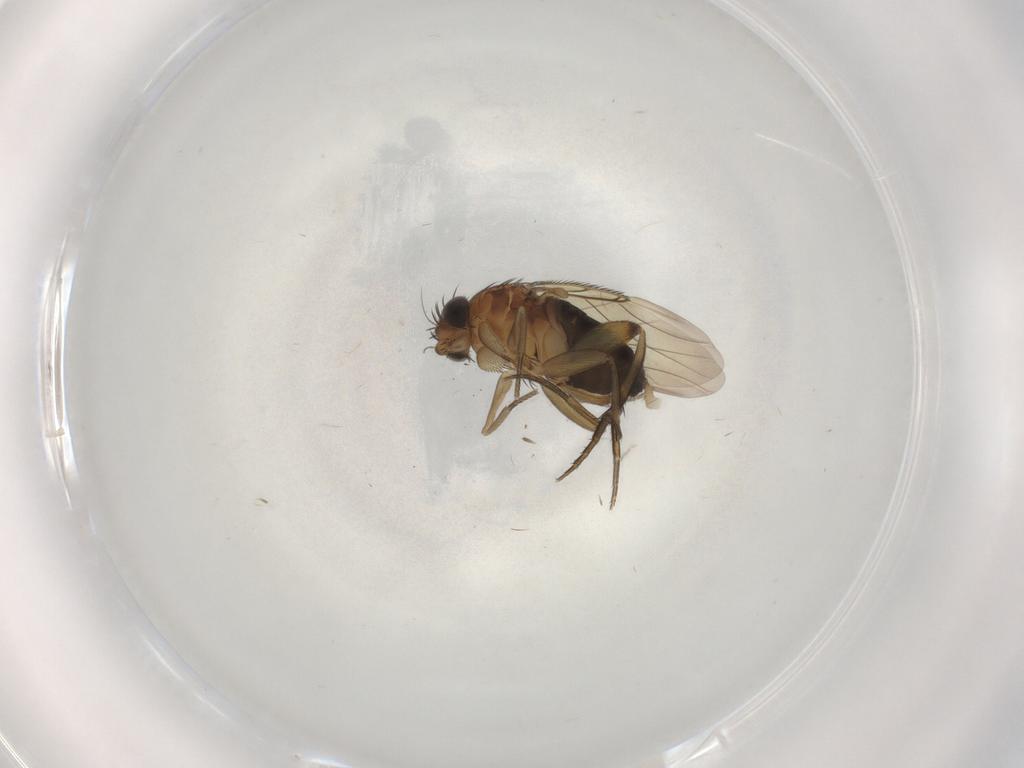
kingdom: Animalia
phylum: Arthropoda
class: Insecta
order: Diptera
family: Phoridae
